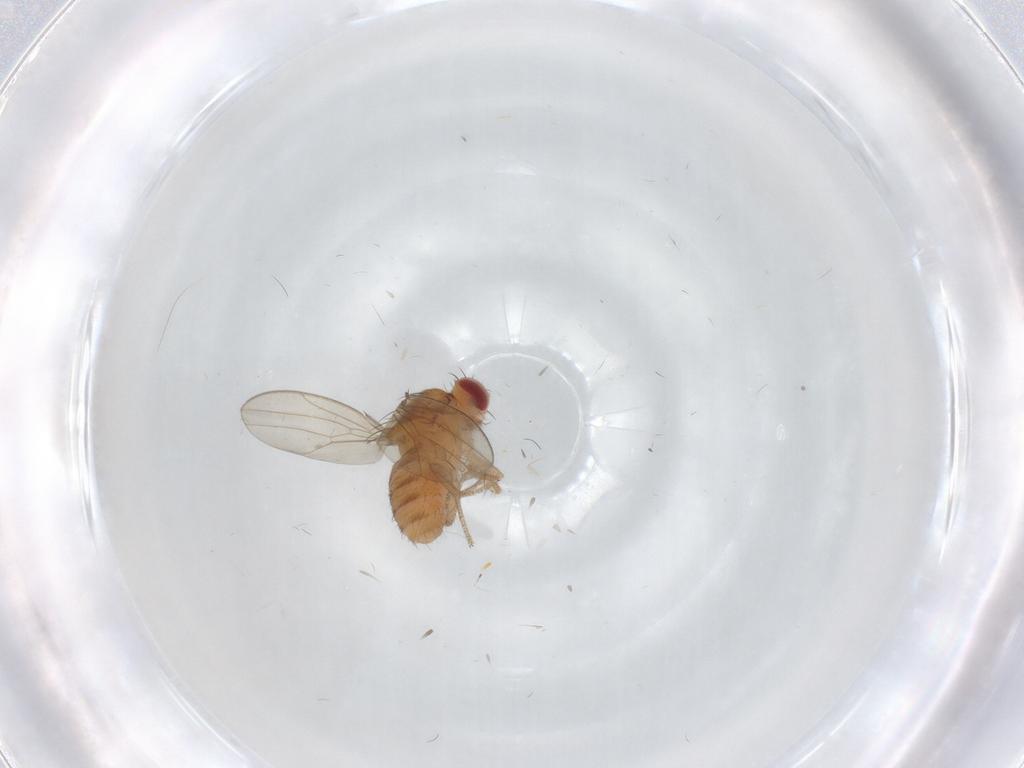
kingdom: Animalia
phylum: Arthropoda
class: Insecta
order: Diptera
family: Drosophilidae
